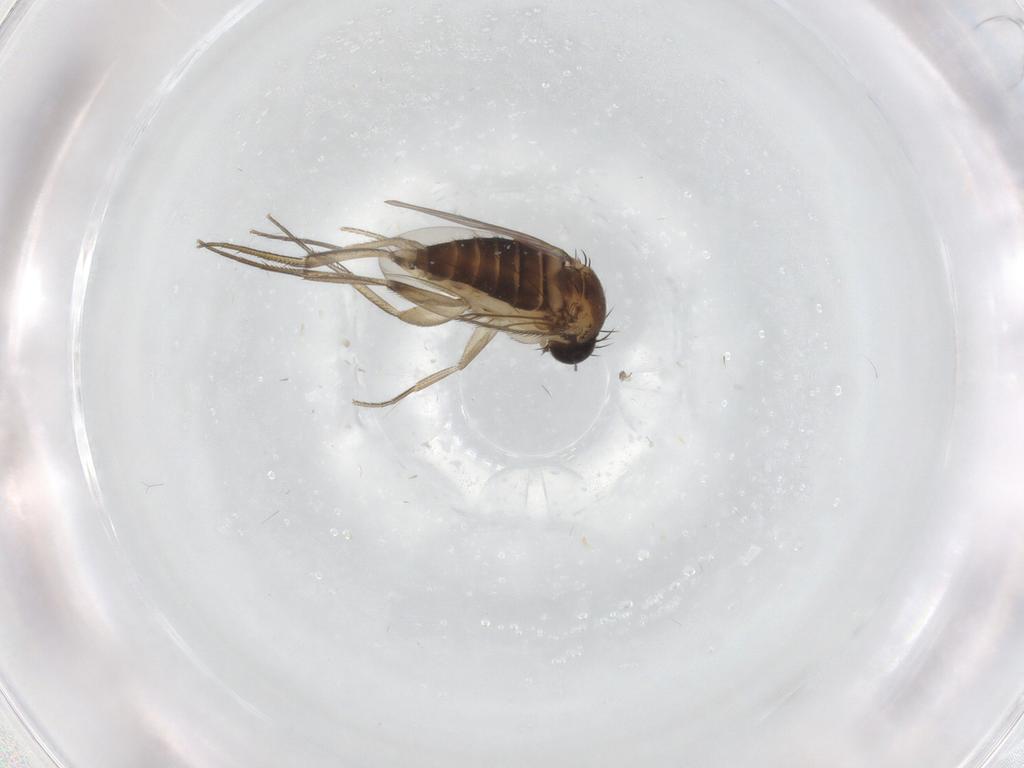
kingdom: Animalia
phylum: Arthropoda
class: Insecta
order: Diptera
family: Phoridae
